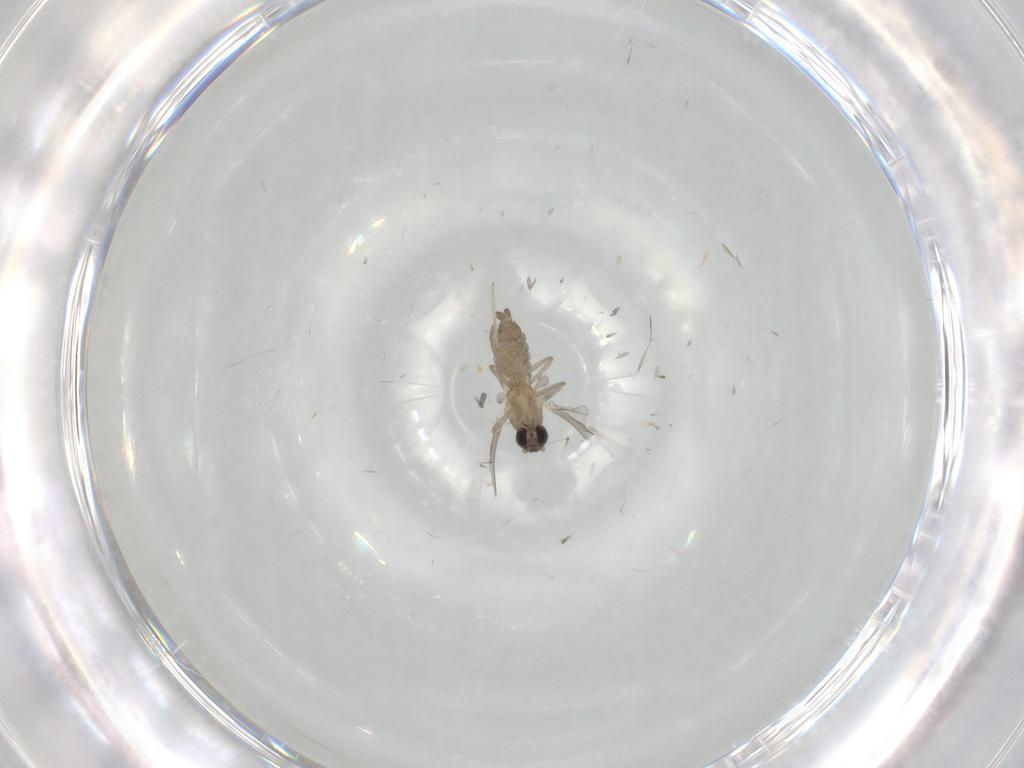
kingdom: Animalia
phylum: Arthropoda
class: Insecta
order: Diptera
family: Cecidomyiidae
